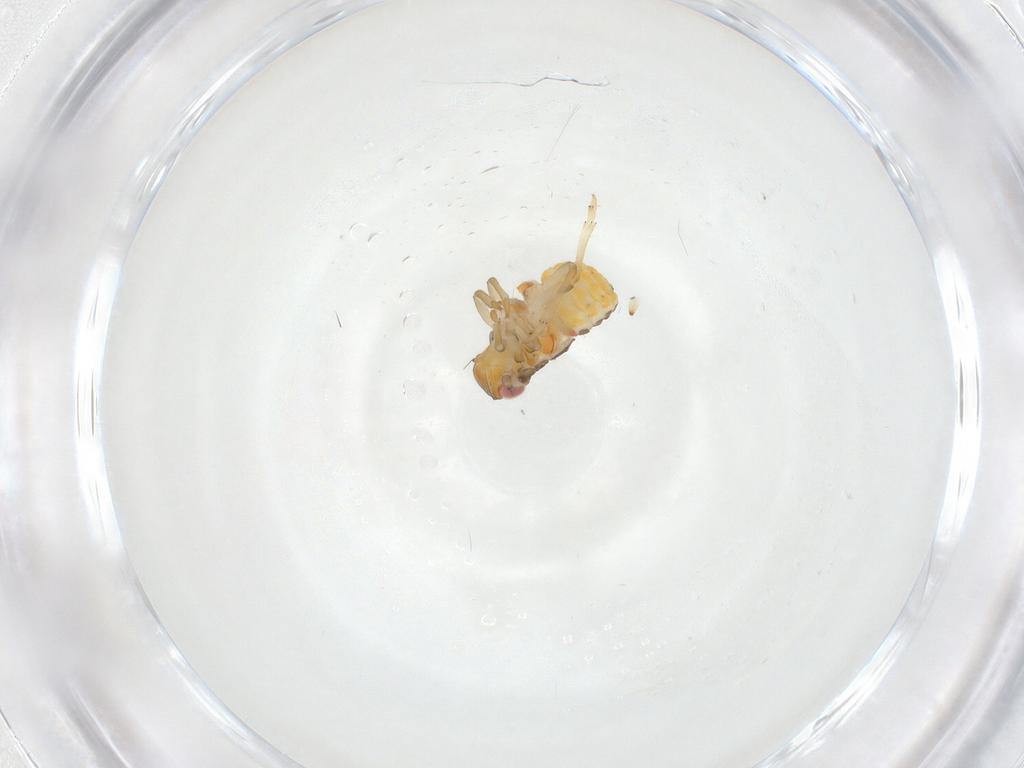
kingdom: Animalia
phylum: Arthropoda
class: Insecta
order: Hemiptera
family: Issidae
